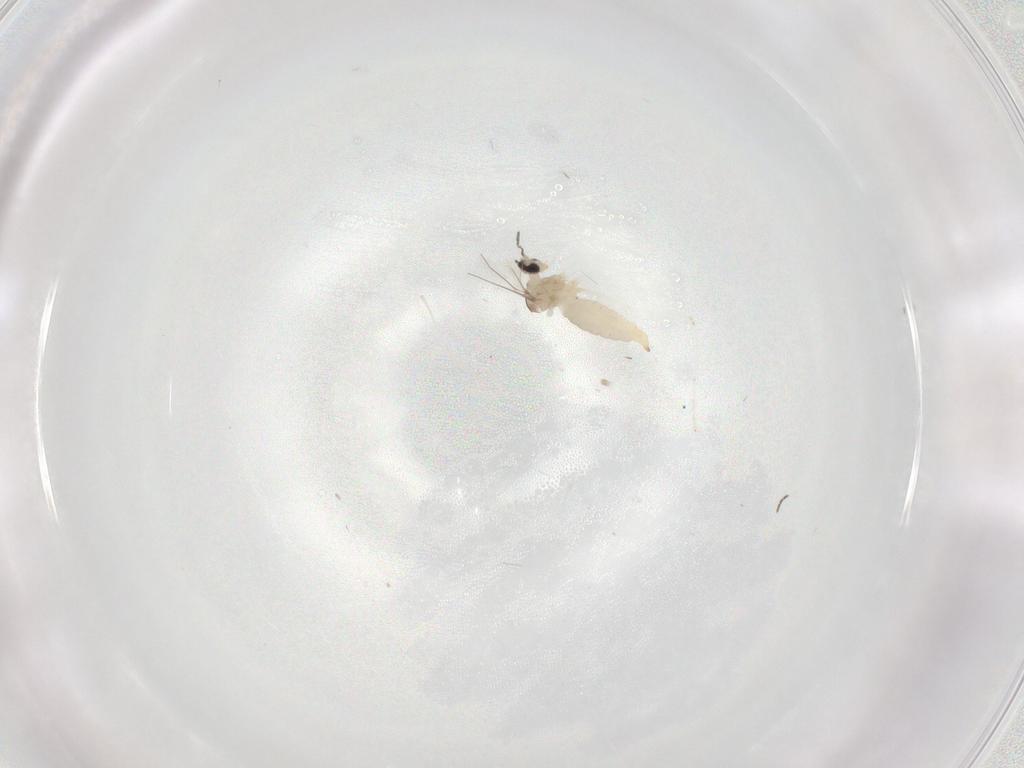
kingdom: Animalia
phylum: Arthropoda
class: Insecta
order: Diptera
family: Cecidomyiidae
